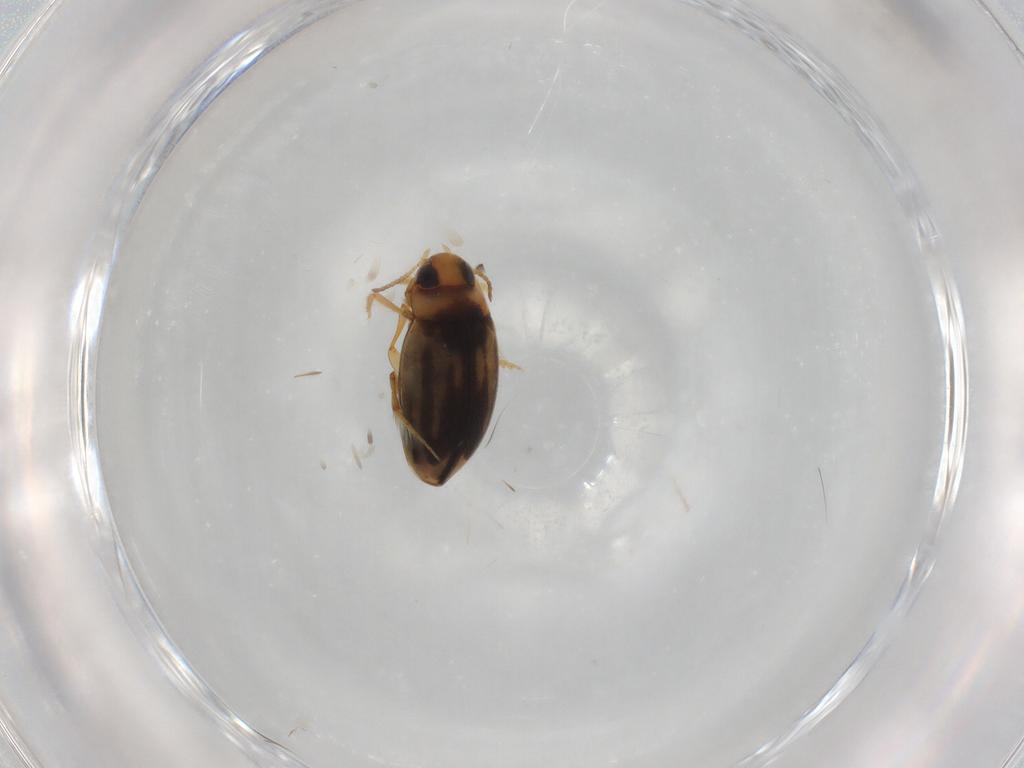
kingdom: Animalia
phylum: Arthropoda
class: Insecta
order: Coleoptera
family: Dytiscidae
